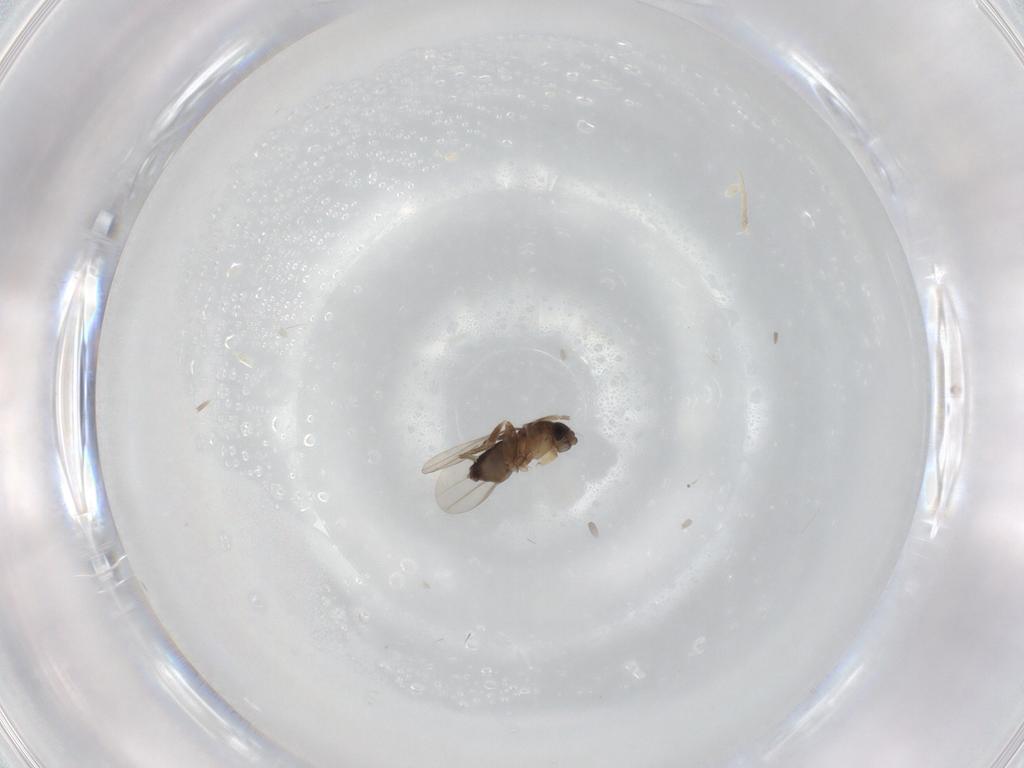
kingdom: Animalia
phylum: Arthropoda
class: Insecta
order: Diptera
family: Phoridae
